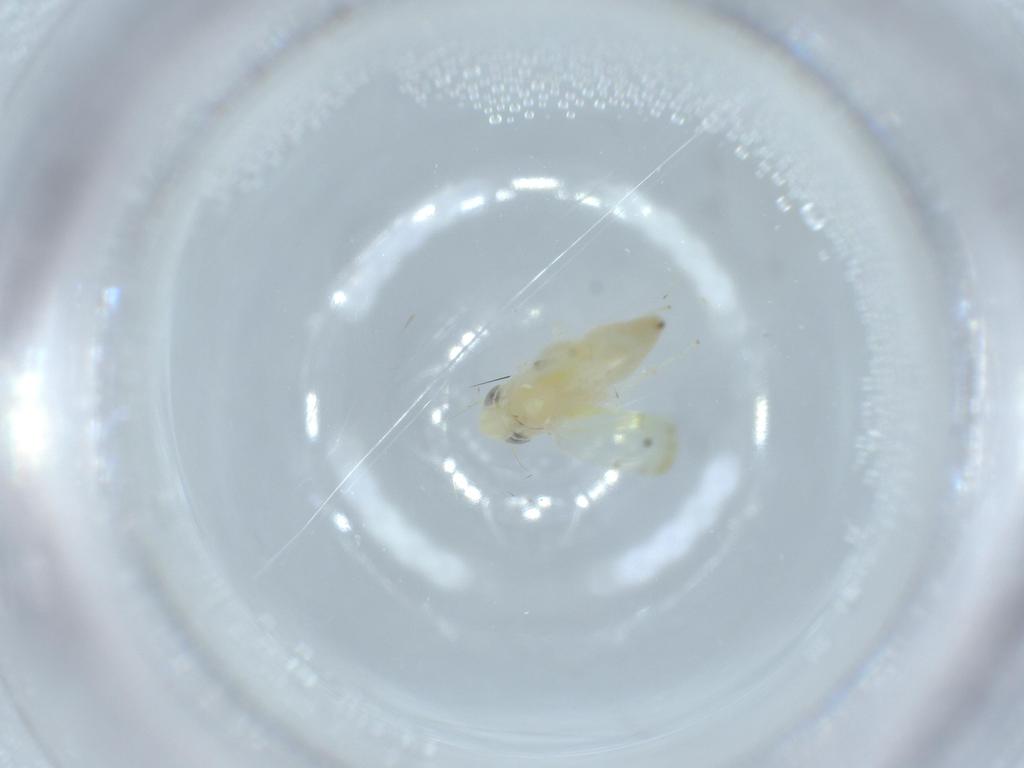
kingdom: Animalia
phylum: Arthropoda
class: Insecta
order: Hemiptera
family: Cicadellidae
